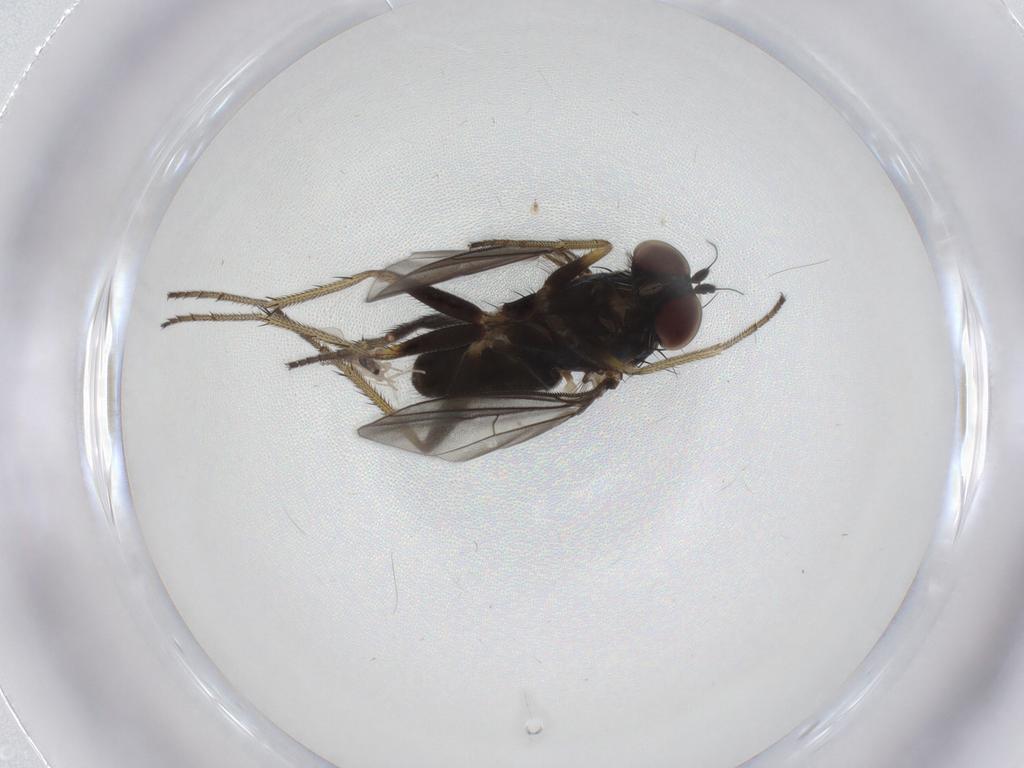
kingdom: Animalia
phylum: Arthropoda
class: Insecta
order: Diptera
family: Cecidomyiidae
